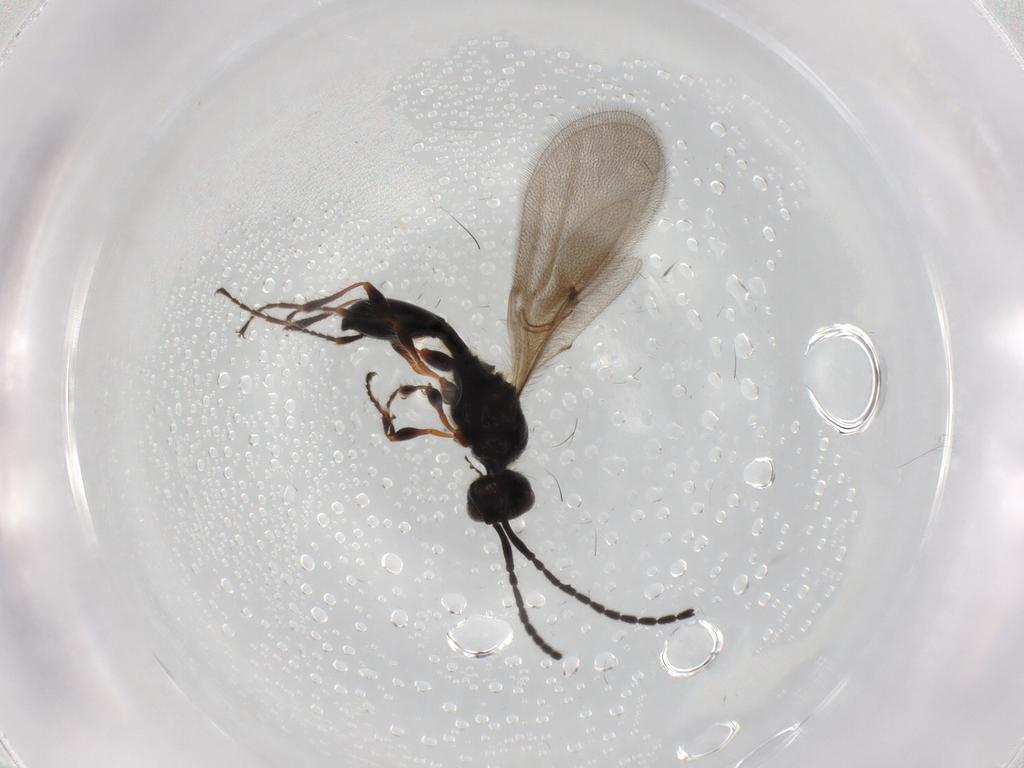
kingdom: Animalia
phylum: Arthropoda
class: Insecta
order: Hymenoptera
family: Diapriidae
